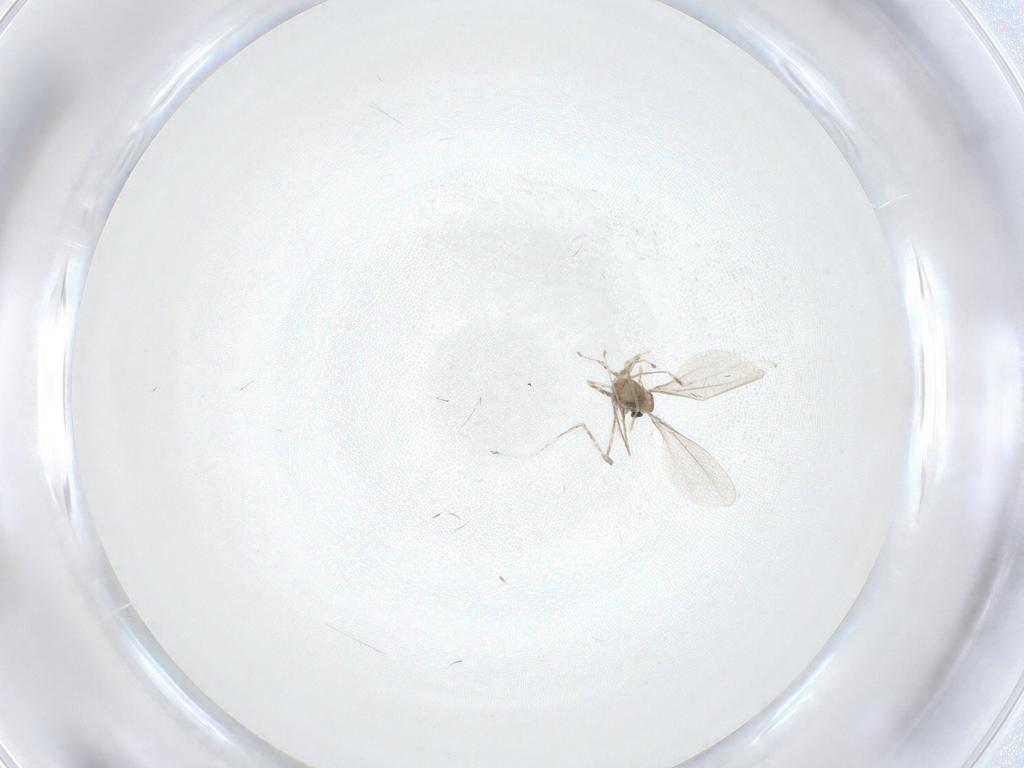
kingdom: Animalia
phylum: Arthropoda
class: Insecta
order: Diptera
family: Cecidomyiidae
